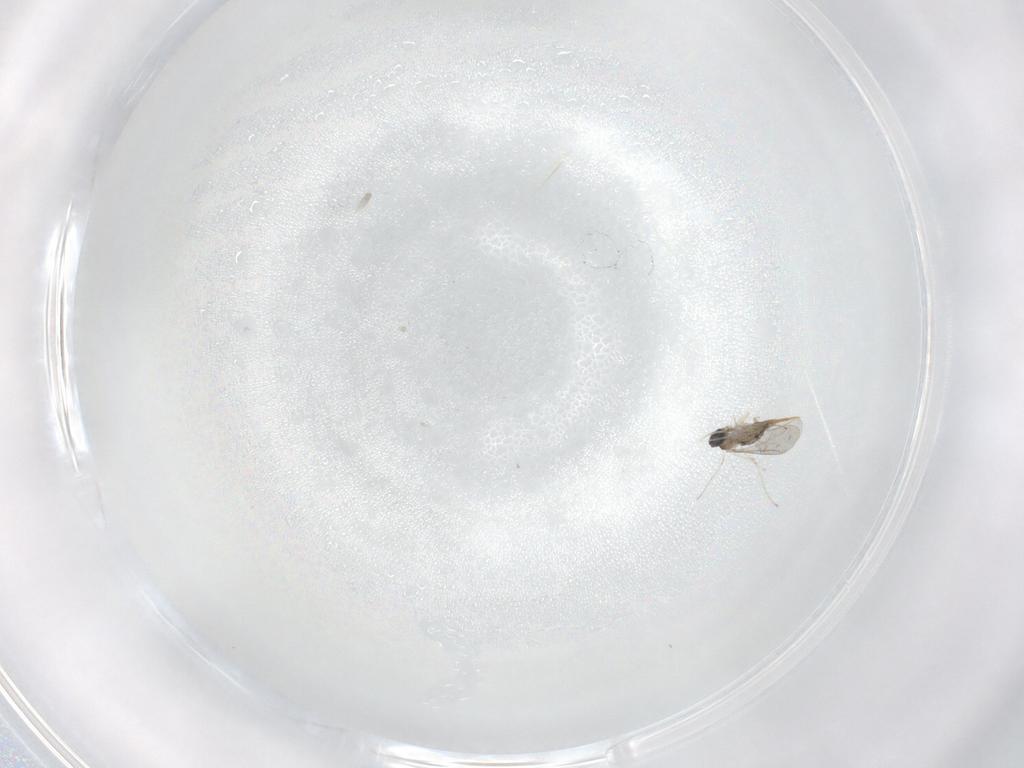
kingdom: Animalia
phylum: Arthropoda
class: Insecta
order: Diptera
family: Cecidomyiidae
